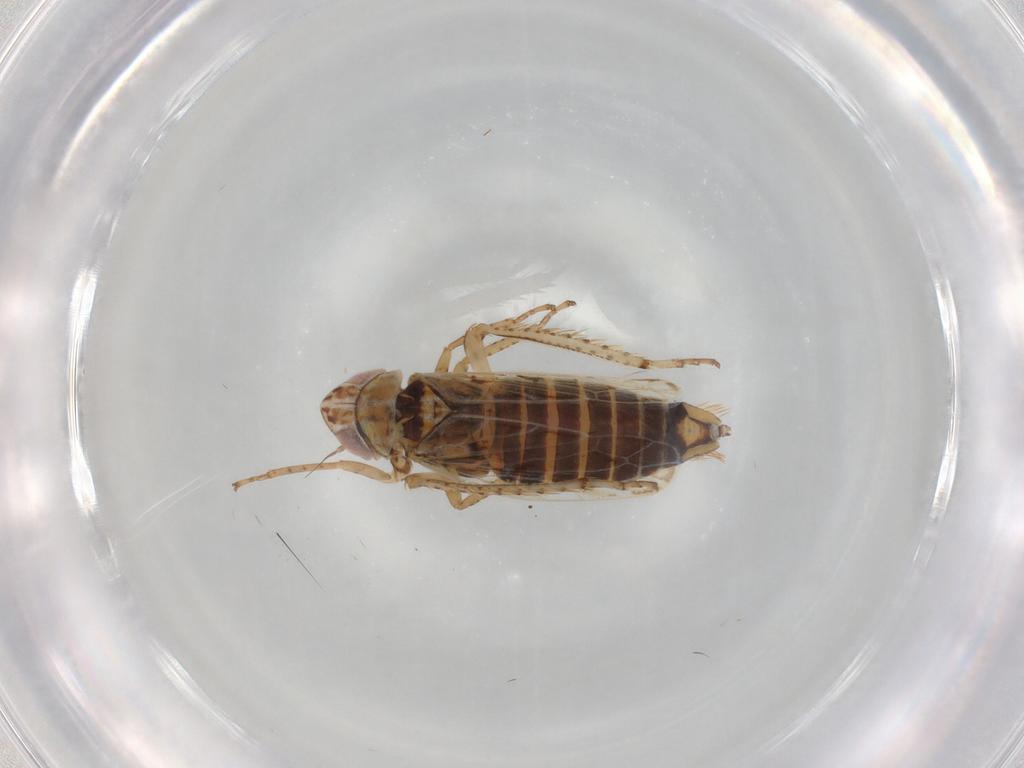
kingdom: Animalia
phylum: Arthropoda
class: Insecta
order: Hemiptera
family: Cicadellidae
